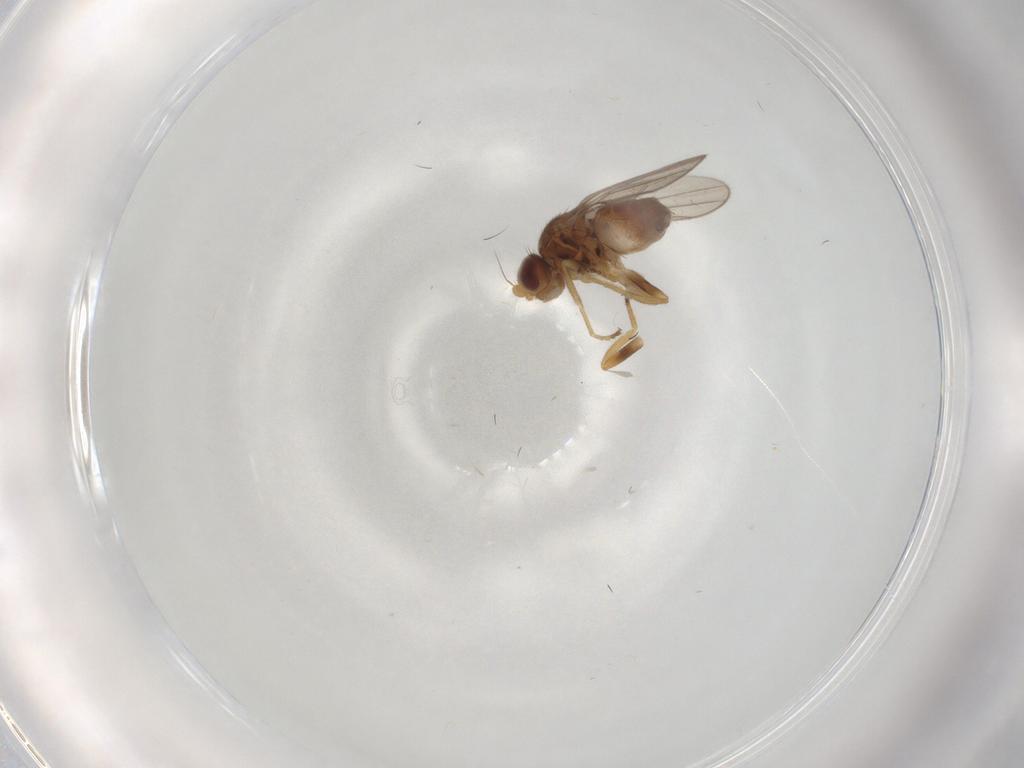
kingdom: Animalia
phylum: Arthropoda
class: Insecta
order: Diptera
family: Chloropidae
